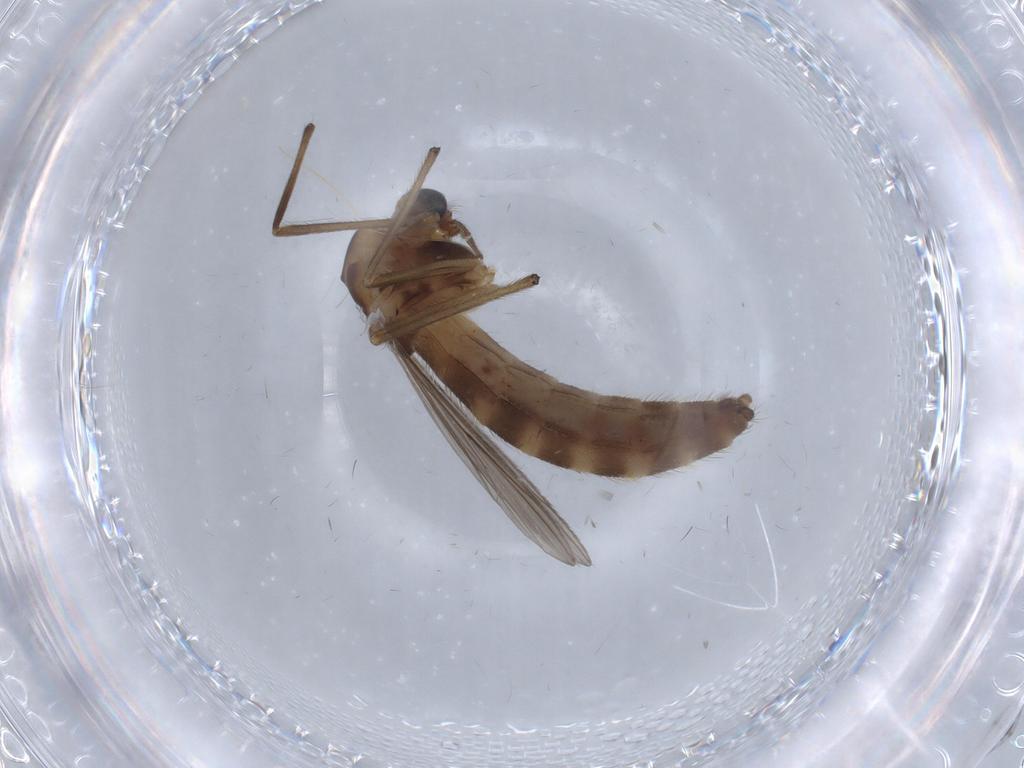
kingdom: Animalia
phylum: Arthropoda
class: Insecta
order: Diptera
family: Chironomidae
